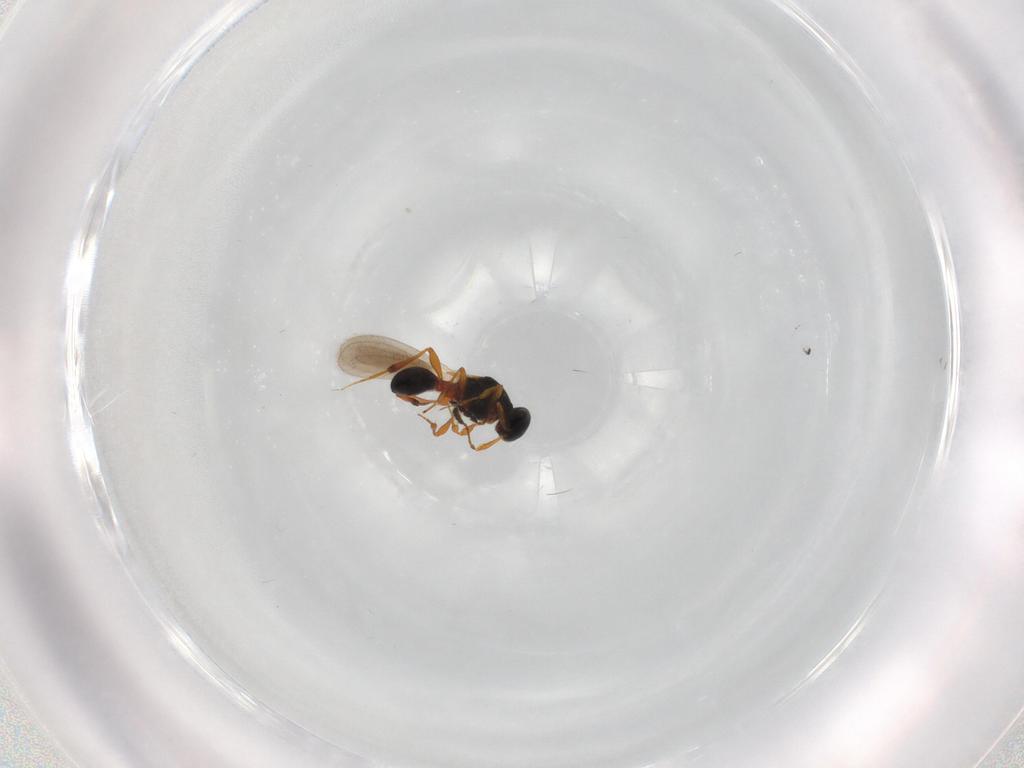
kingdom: Animalia
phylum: Arthropoda
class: Insecta
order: Hymenoptera
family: Platygastridae
